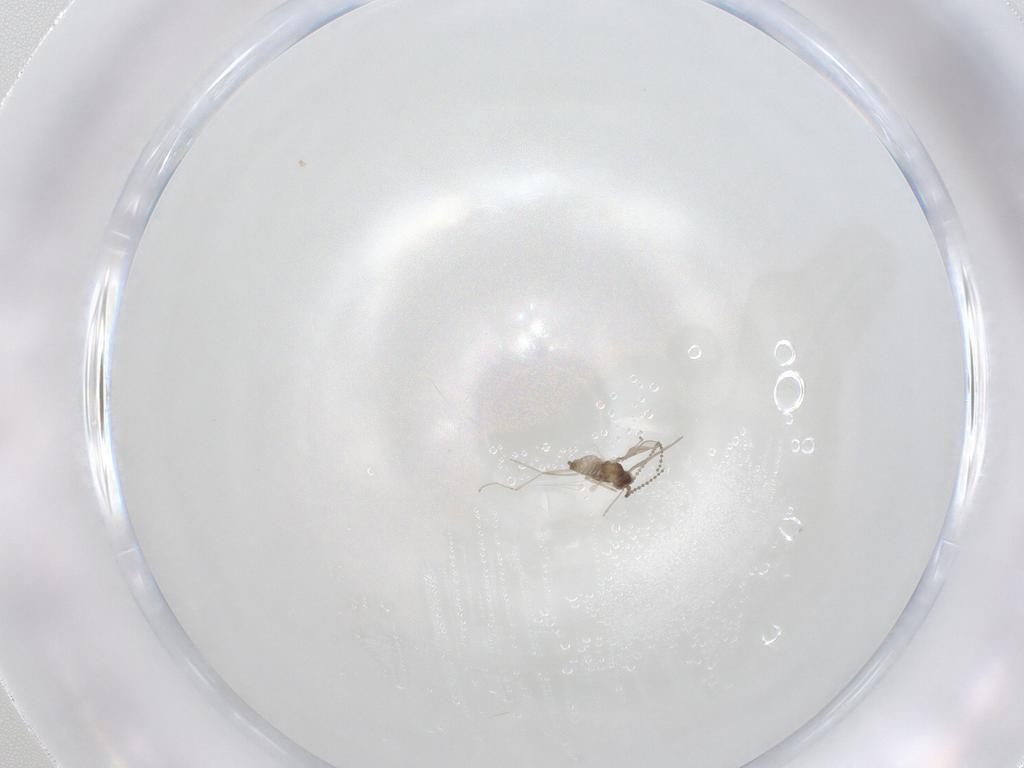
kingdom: Animalia
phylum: Arthropoda
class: Insecta
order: Diptera
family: Cecidomyiidae
